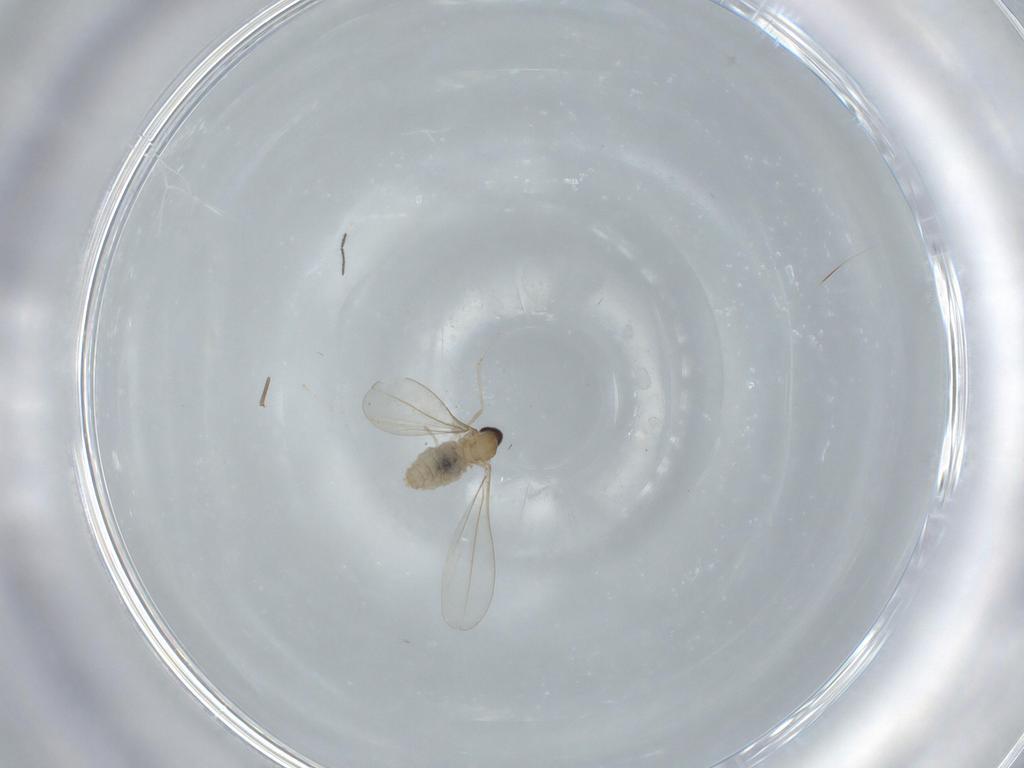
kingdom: Animalia
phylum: Arthropoda
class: Insecta
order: Diptera
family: Cecidomyiidae
